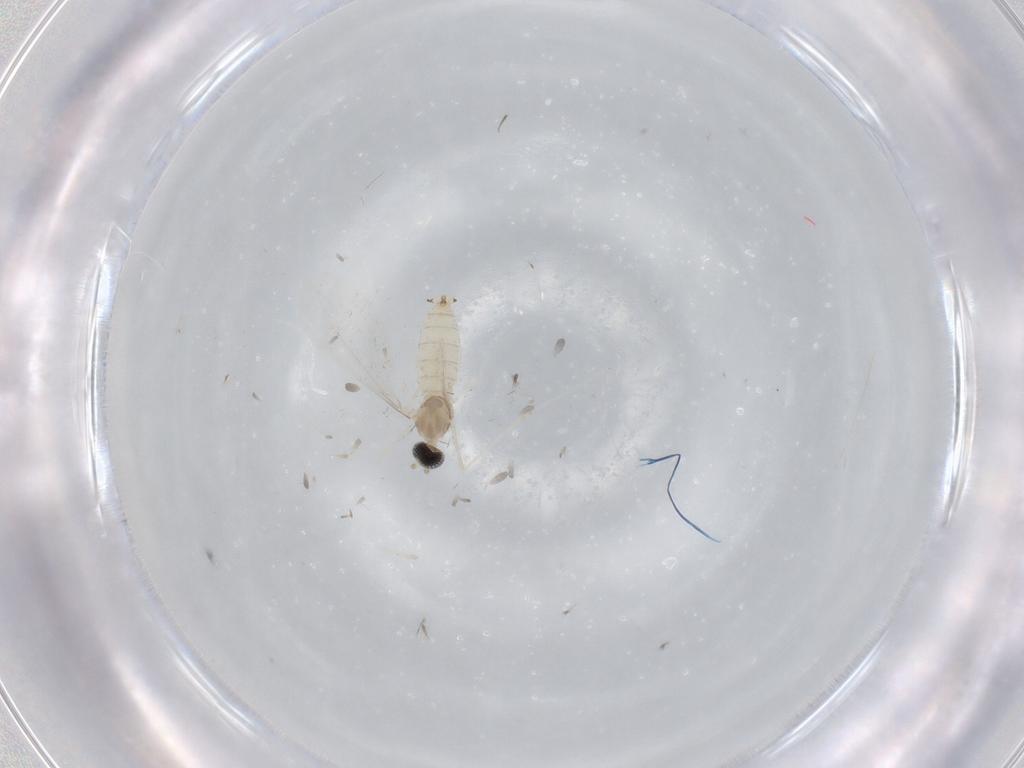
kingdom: Animalia
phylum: Arthropoda
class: Insecta
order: Diptera
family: Cecidomyiidae
